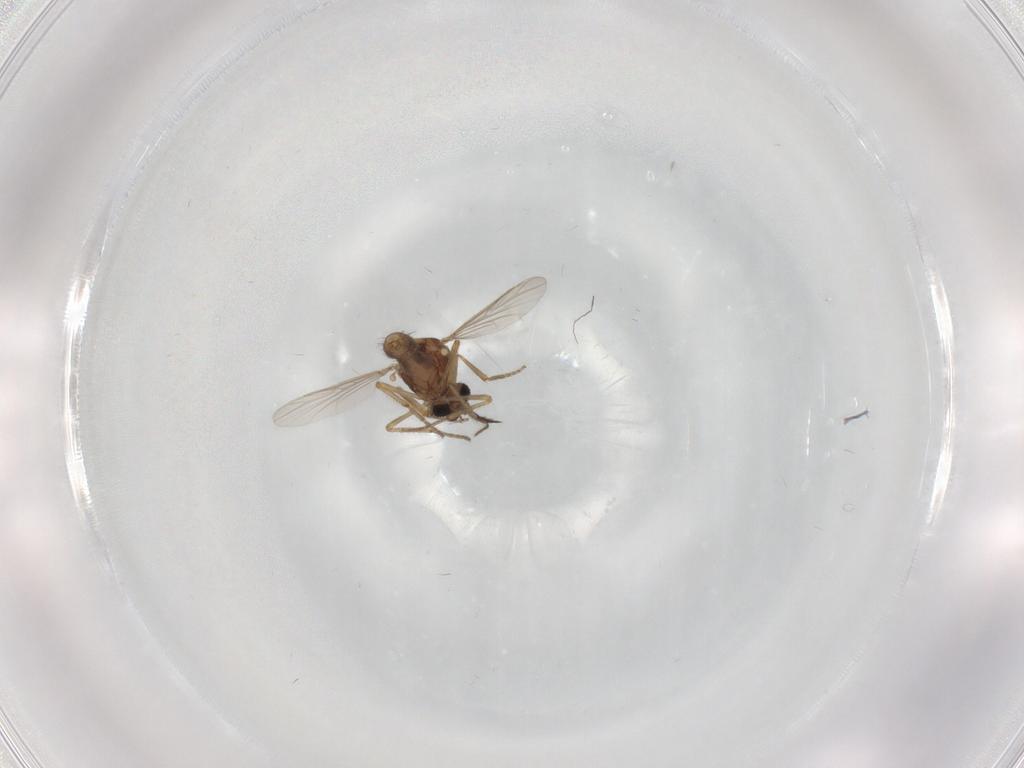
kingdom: Animalia
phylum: Arthropoda
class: Insecta
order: Diptera
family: Ceratopogonidae
